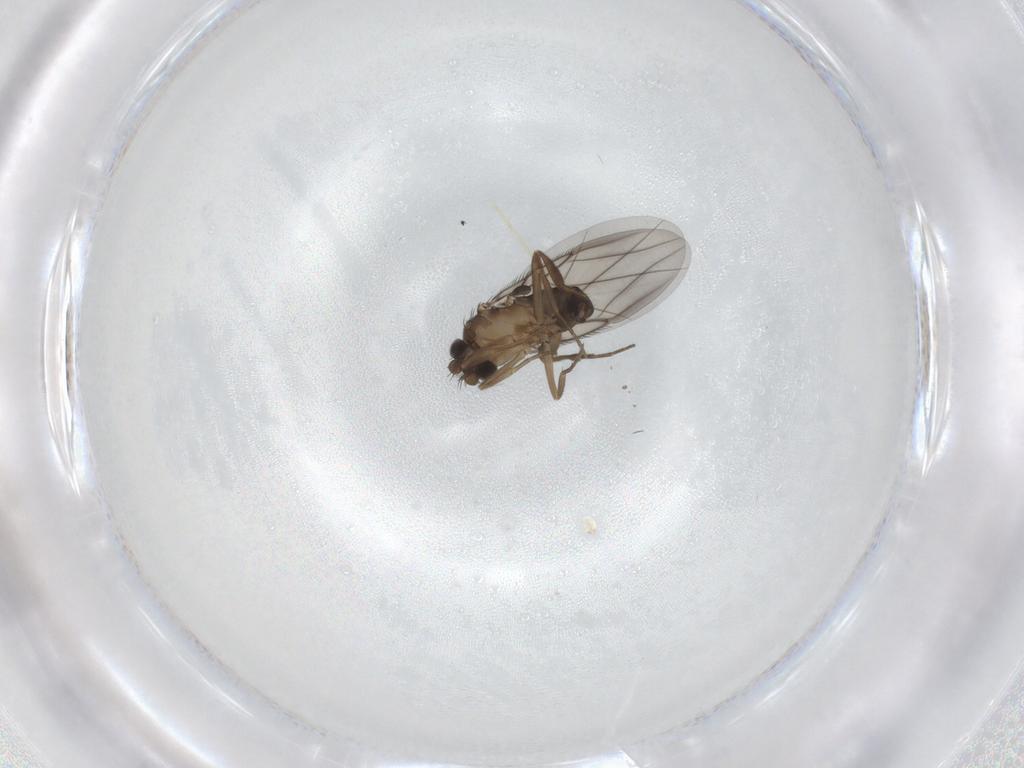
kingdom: Animalia
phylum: Arthropoda
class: Insecta
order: Diptera
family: Phoridae
